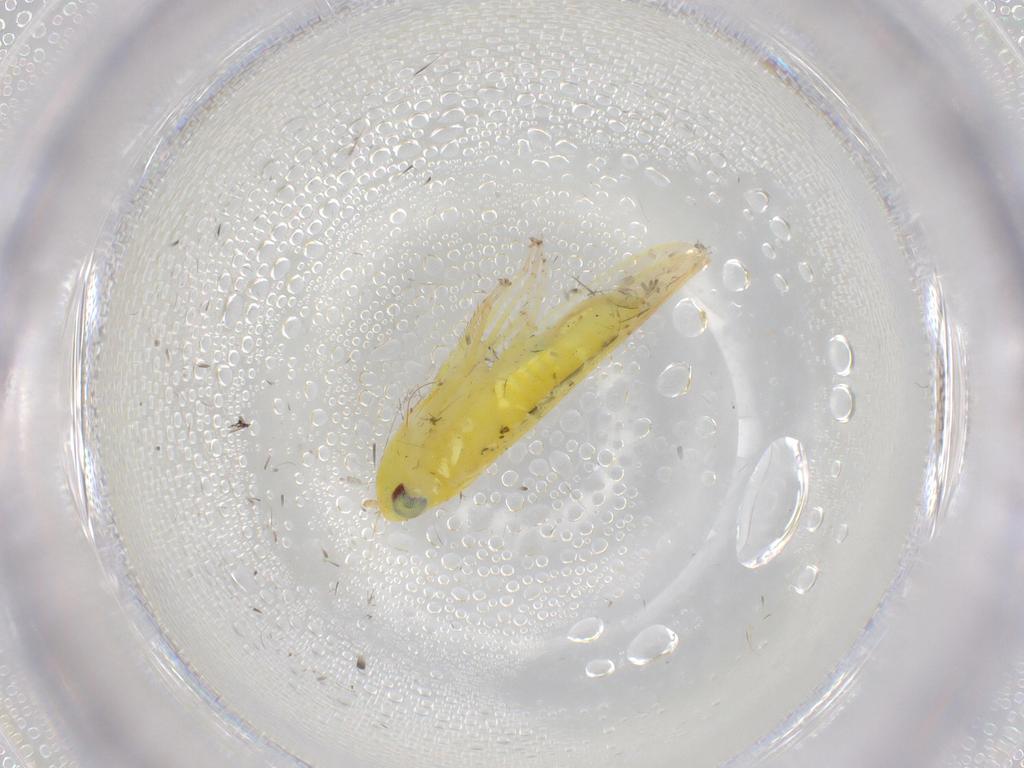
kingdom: Animalia
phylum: Arthropoda
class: Insecta
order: Hemiptera
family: Cicadellidae
